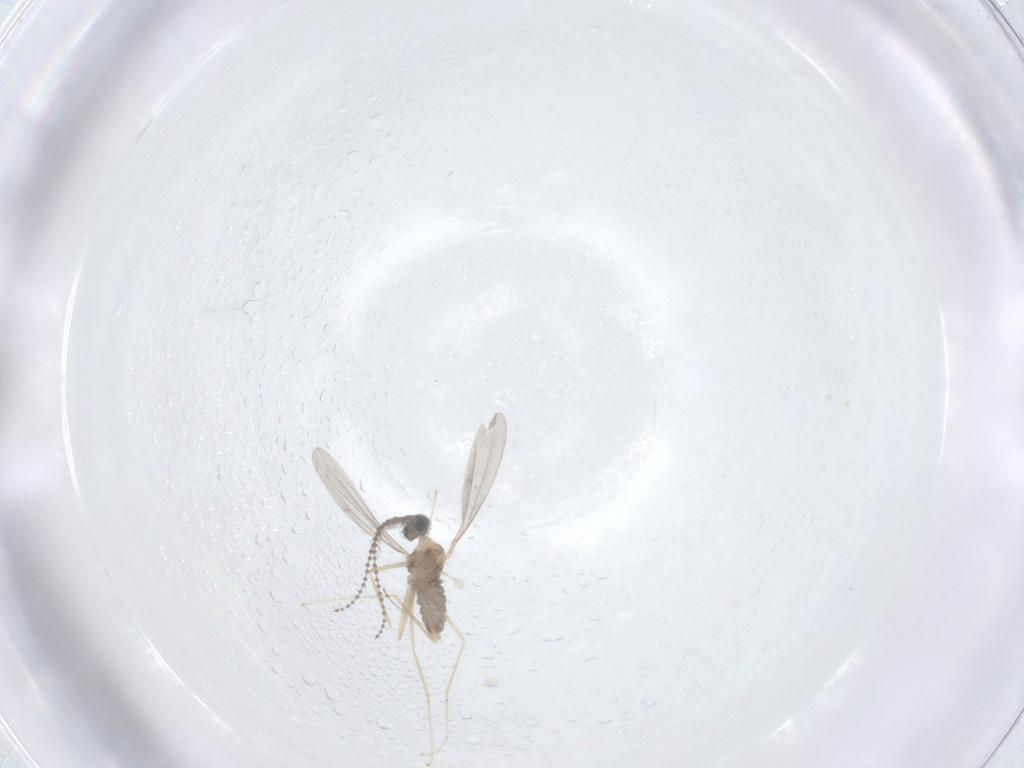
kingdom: Animalia
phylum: Arthropoda
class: Insecta
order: Diptera
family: Cecidomyiidae
